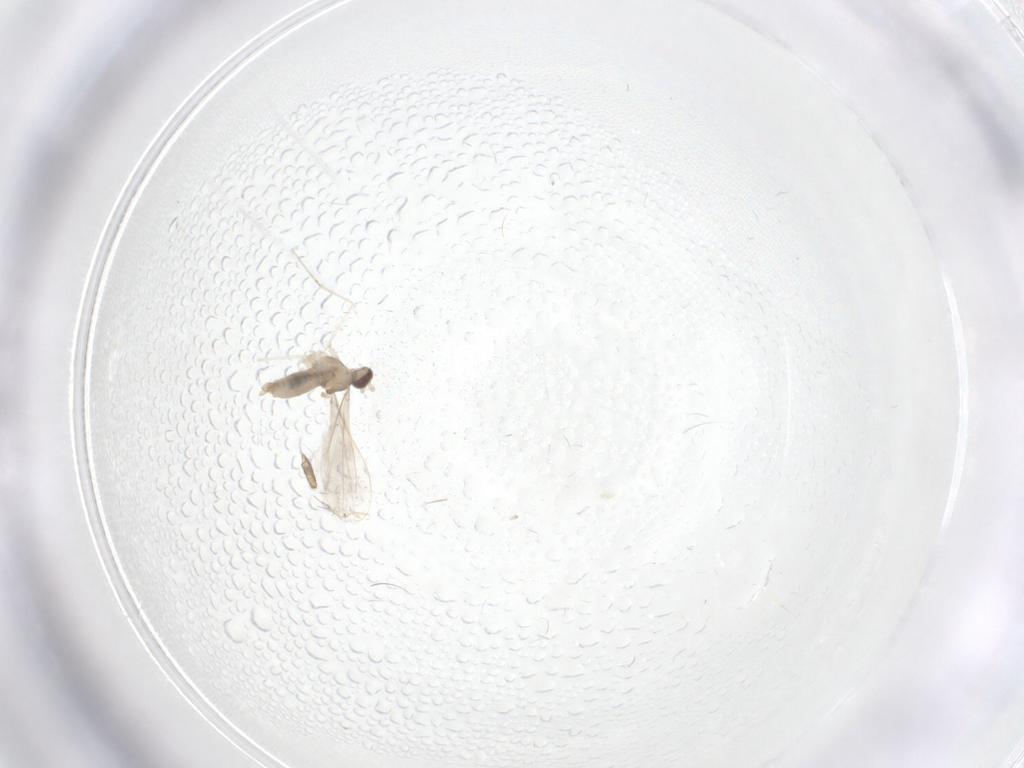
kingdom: Animalia
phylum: Arthropoda
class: Insecta
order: Diptera
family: Cecidomyiidae
